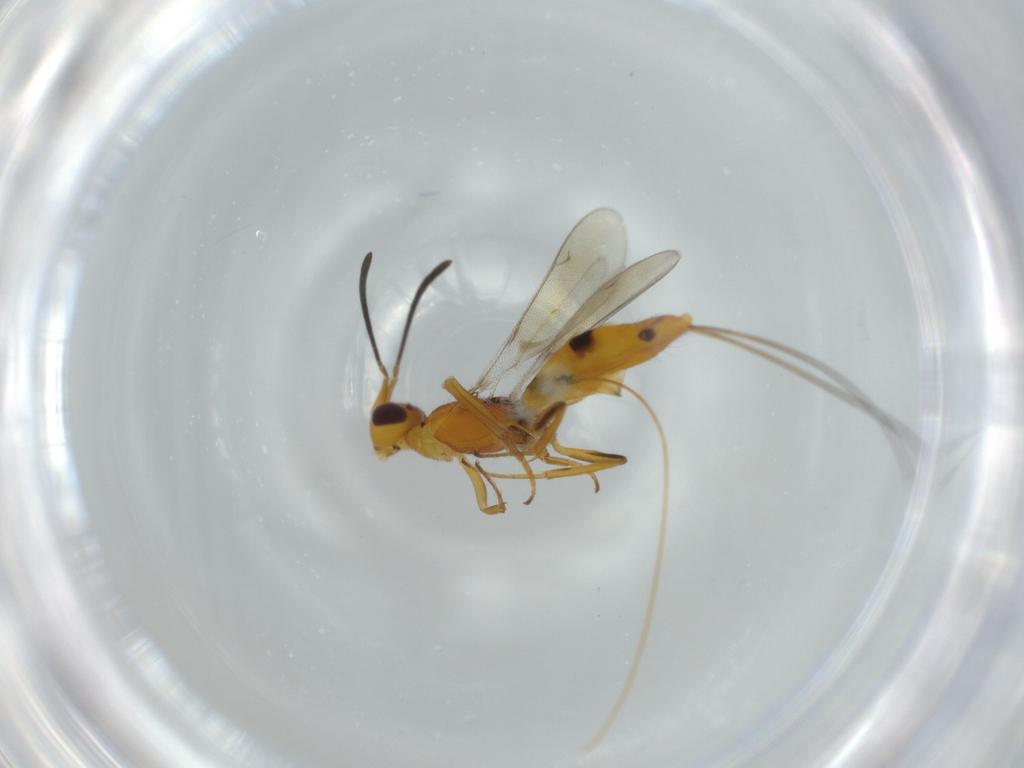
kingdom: Animalia
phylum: Arthropoda
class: Insecta
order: Hymenoptera
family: Eupelmidae
